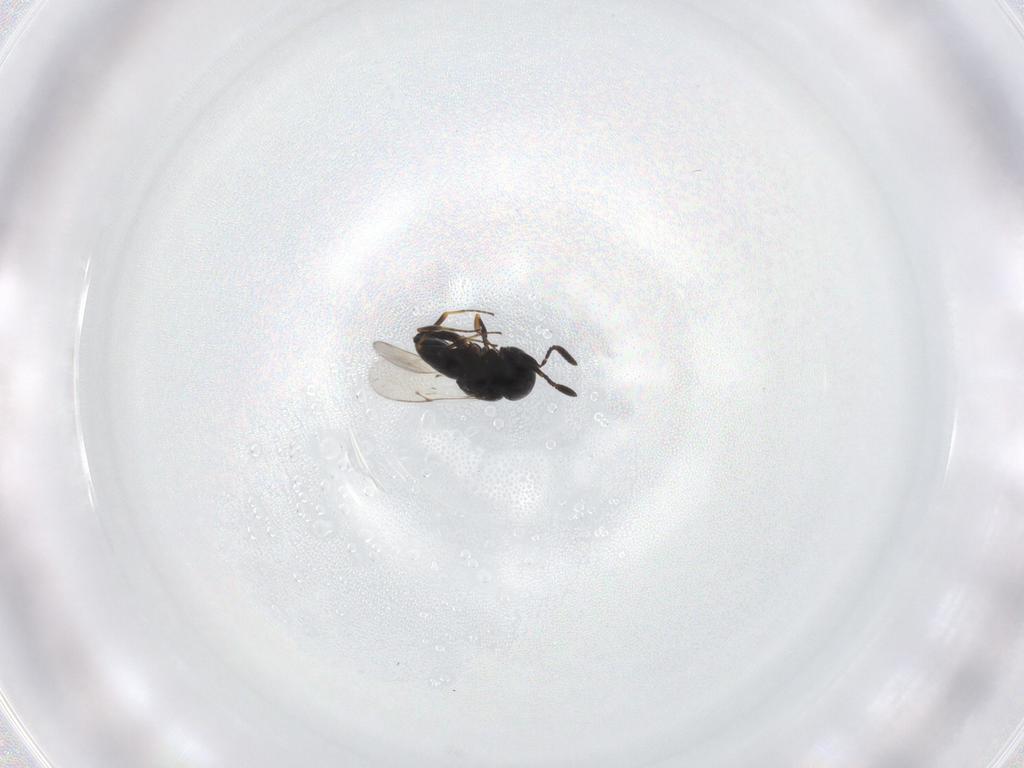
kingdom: Animalia
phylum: Arthropoda
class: Insecta
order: Hymenoptera
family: Scelionidae
